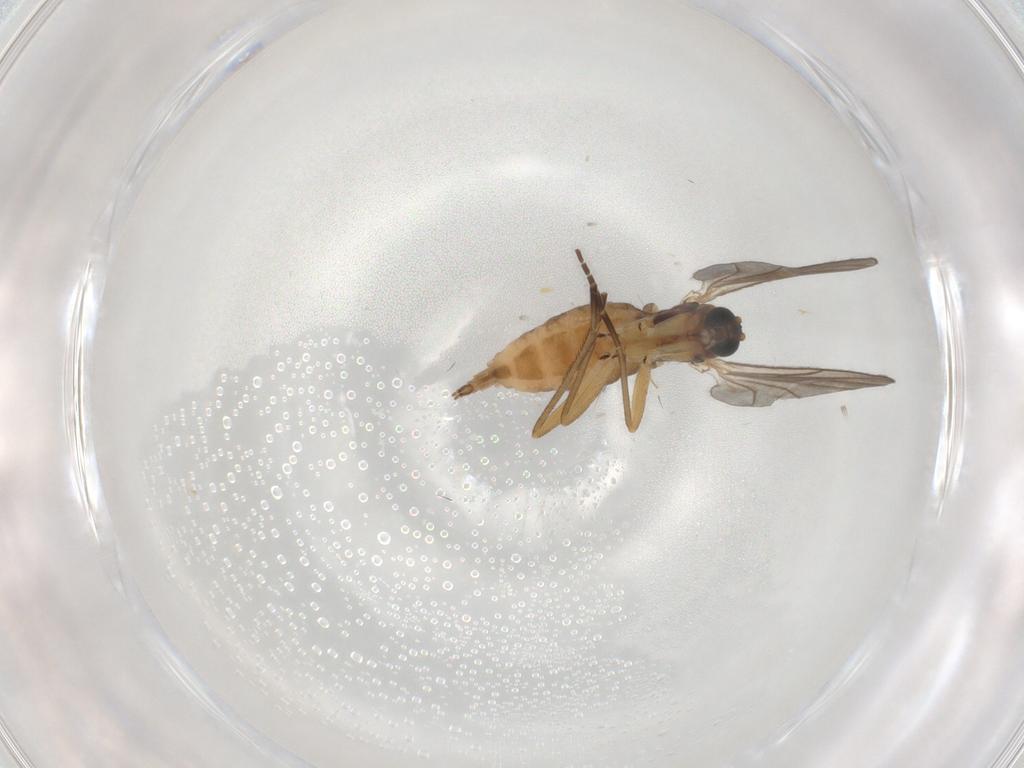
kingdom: Animalia
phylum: Arthropoda
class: Insecta
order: Diptera
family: Sciaridae
